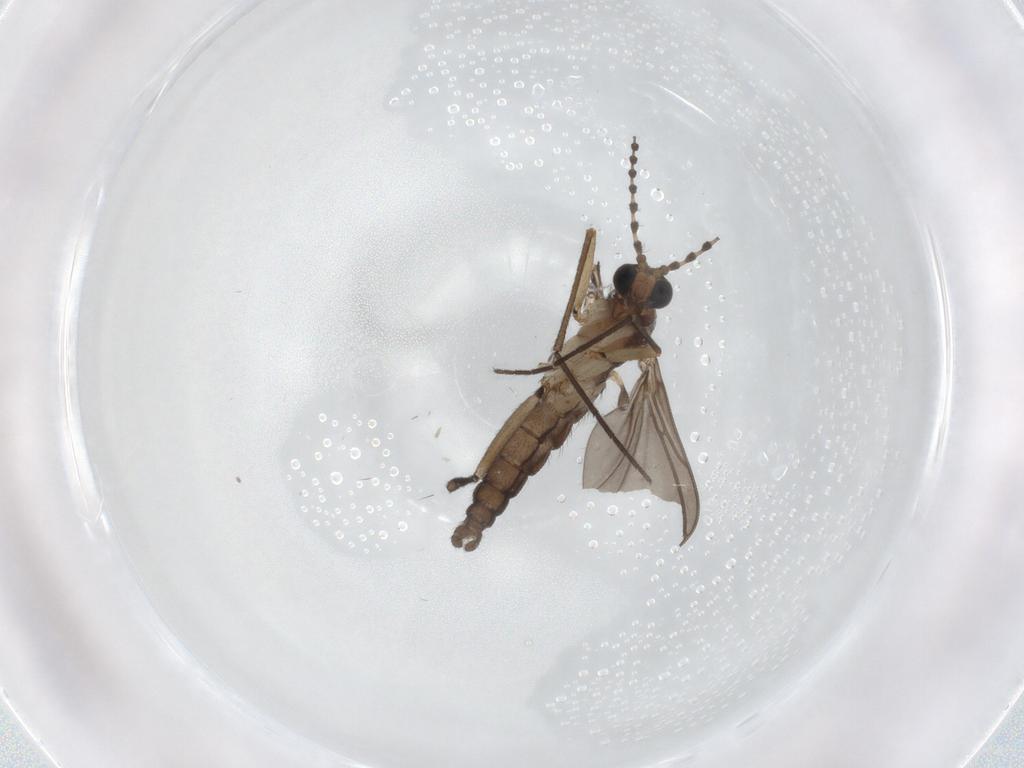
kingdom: Animalia
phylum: Arthropoda
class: Insecta
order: Diptera
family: Sciaridae
